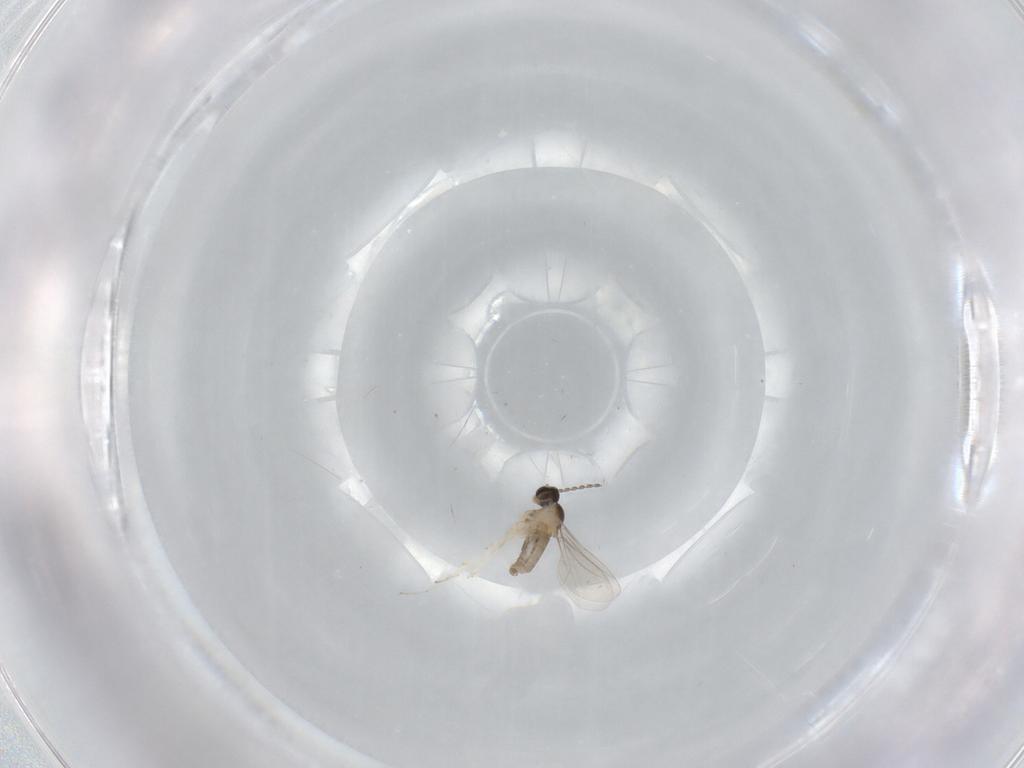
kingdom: Animalia
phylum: Arthropoda
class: Insecta
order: Diptera
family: Cecidomyiidae
